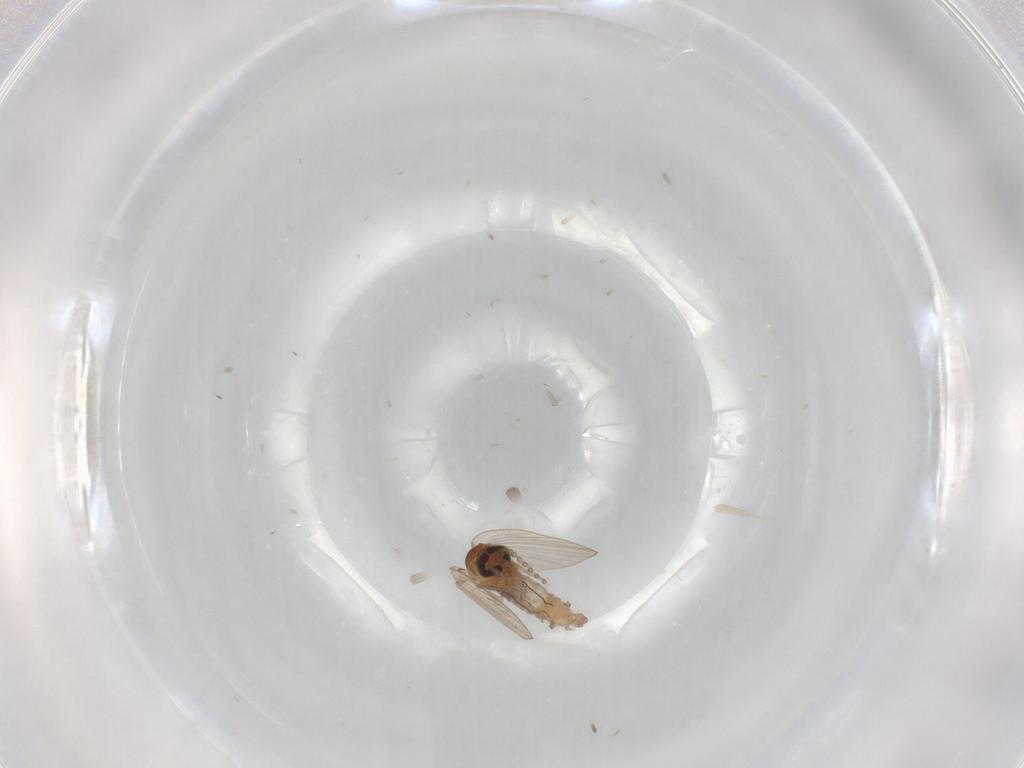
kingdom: Animalia
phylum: Arthropoda
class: Insecta
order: Diptera
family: Psychodidae
